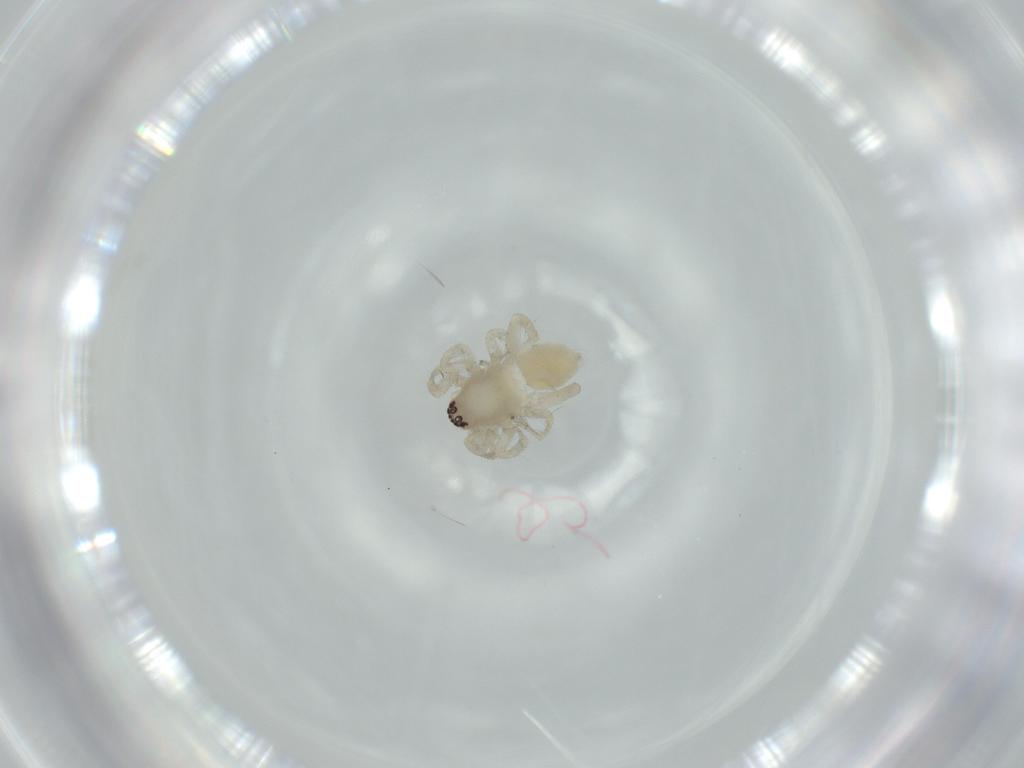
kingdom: Animalia
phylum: Arthropoda
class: Arachnida
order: Araneae
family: Anyphaenidae
